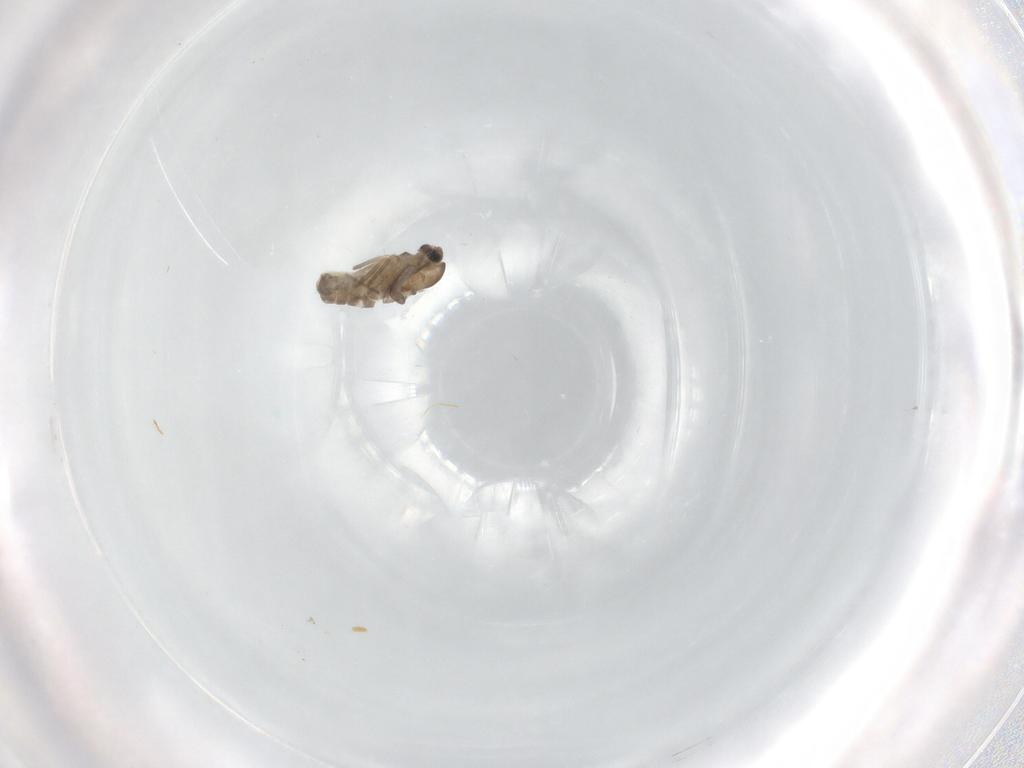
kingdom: Animalia
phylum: Arthropoda
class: Insecta
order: Diptera
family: Chironomidae
